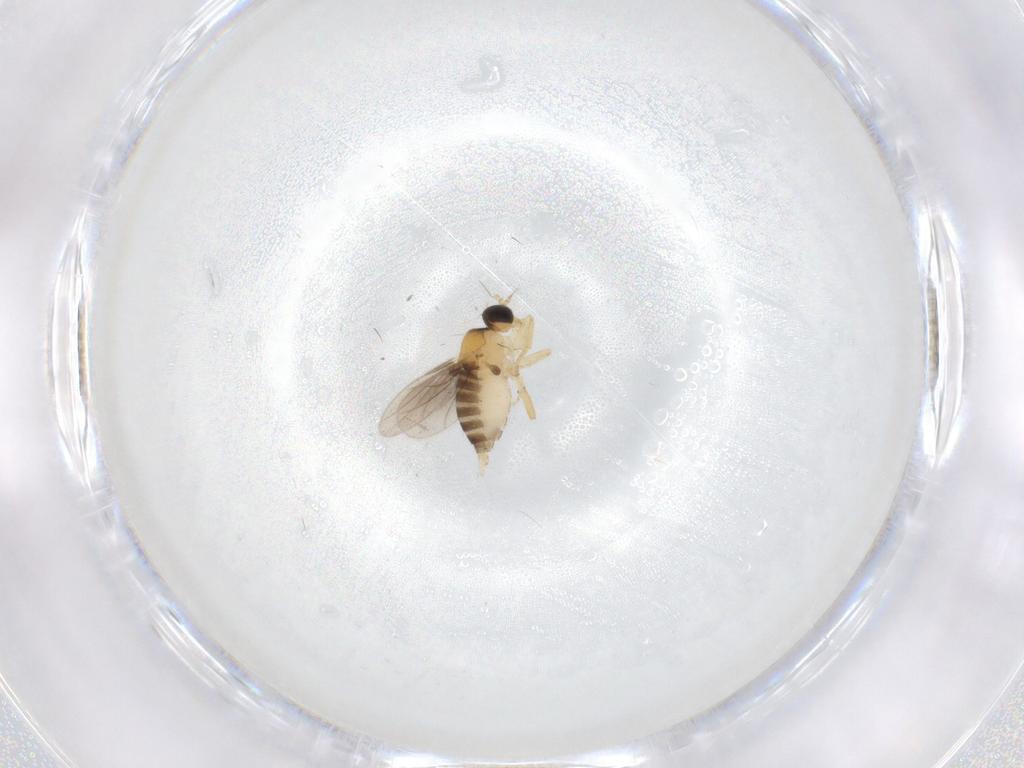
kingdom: Animalia
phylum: Arthropoda
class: Insecta
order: Diptera
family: Hybotidae
